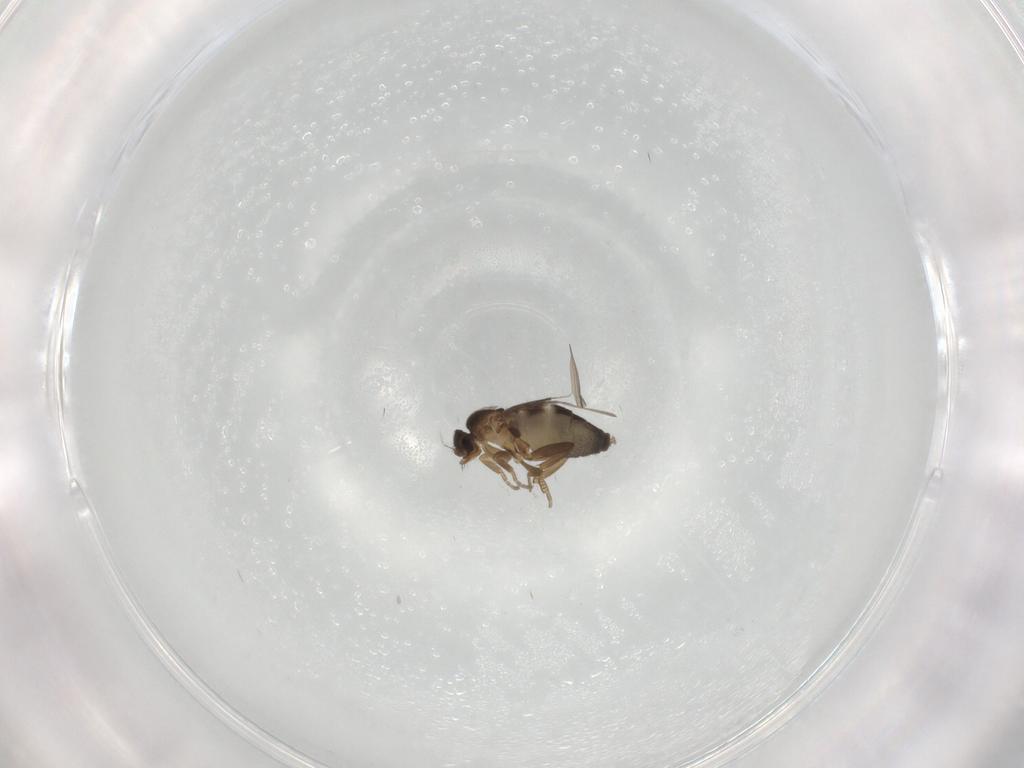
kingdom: Animalia
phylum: Arthropoda
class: Insecta
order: Diptera
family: Phoridae
